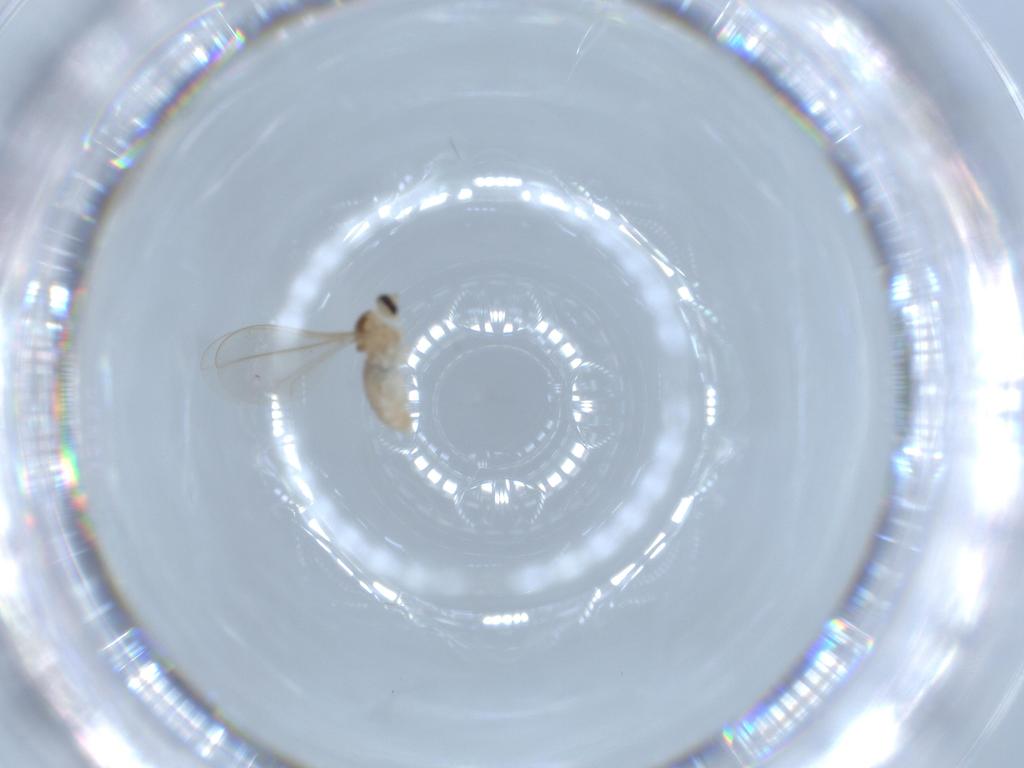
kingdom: Animalia
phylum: Arthropoda
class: Insecta
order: Diptera
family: Cecidomyiidae
